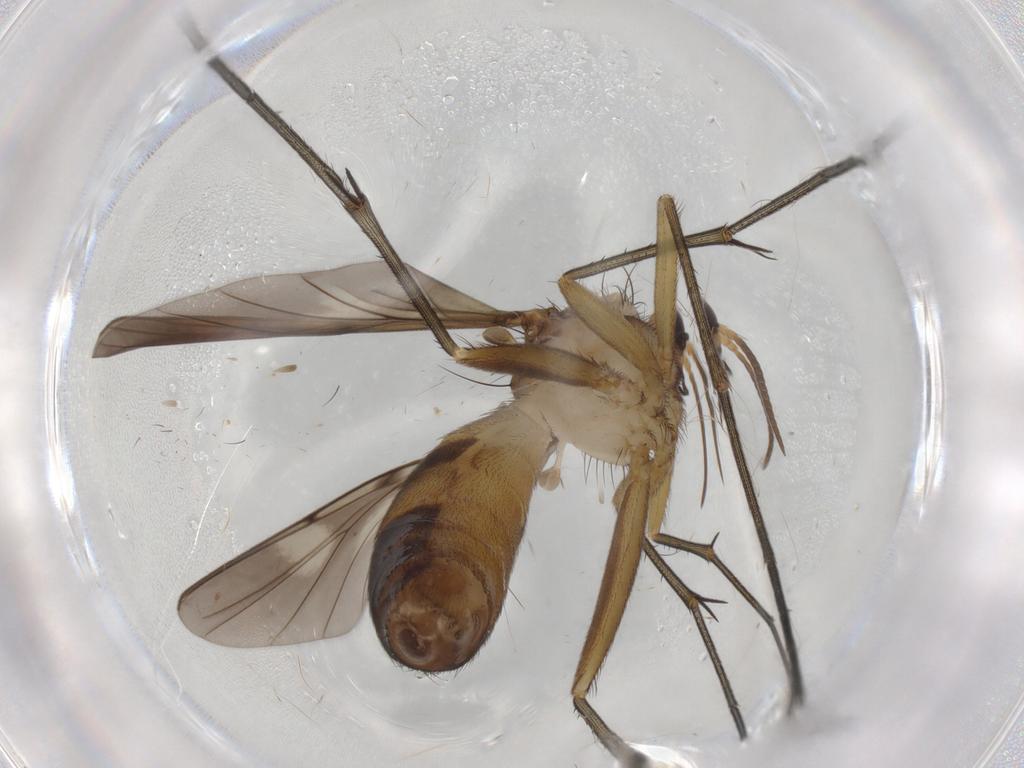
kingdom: Animalia
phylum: Arthropoda
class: Insecta
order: Diptera
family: Mycetophilidae
